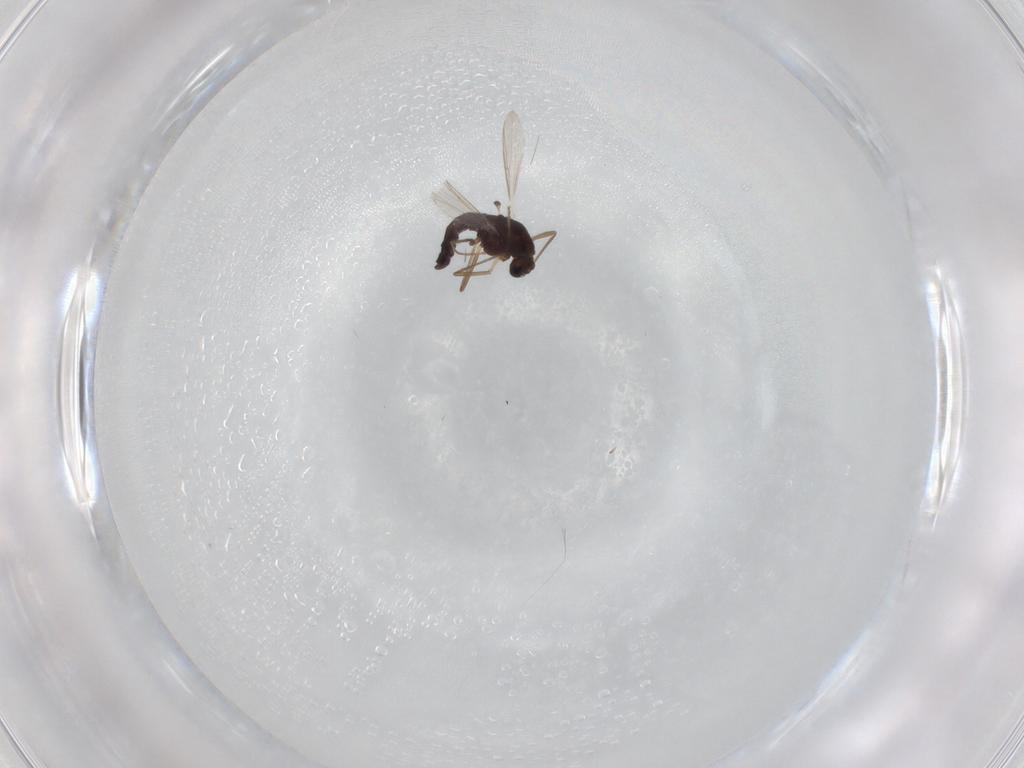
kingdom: Animalia
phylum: Arthropoda
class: Insecta
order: Diptera
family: Chironomidae
